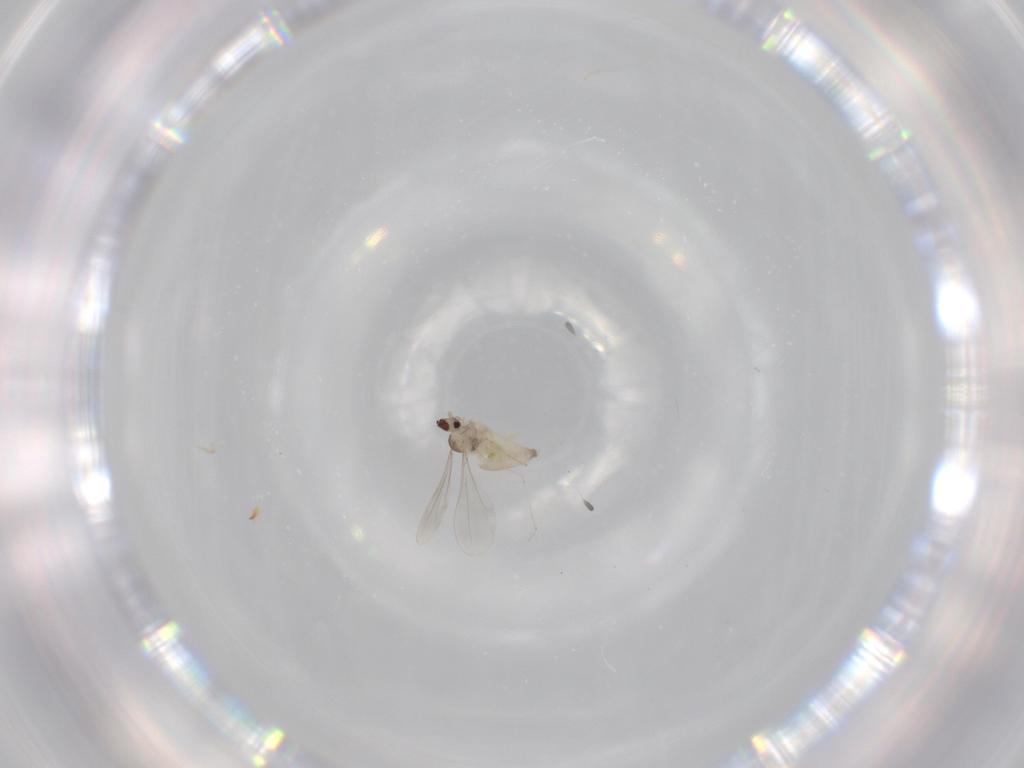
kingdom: Animalia
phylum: Arthropoda
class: Insecta
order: Diptera
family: Cecidomyiidae
